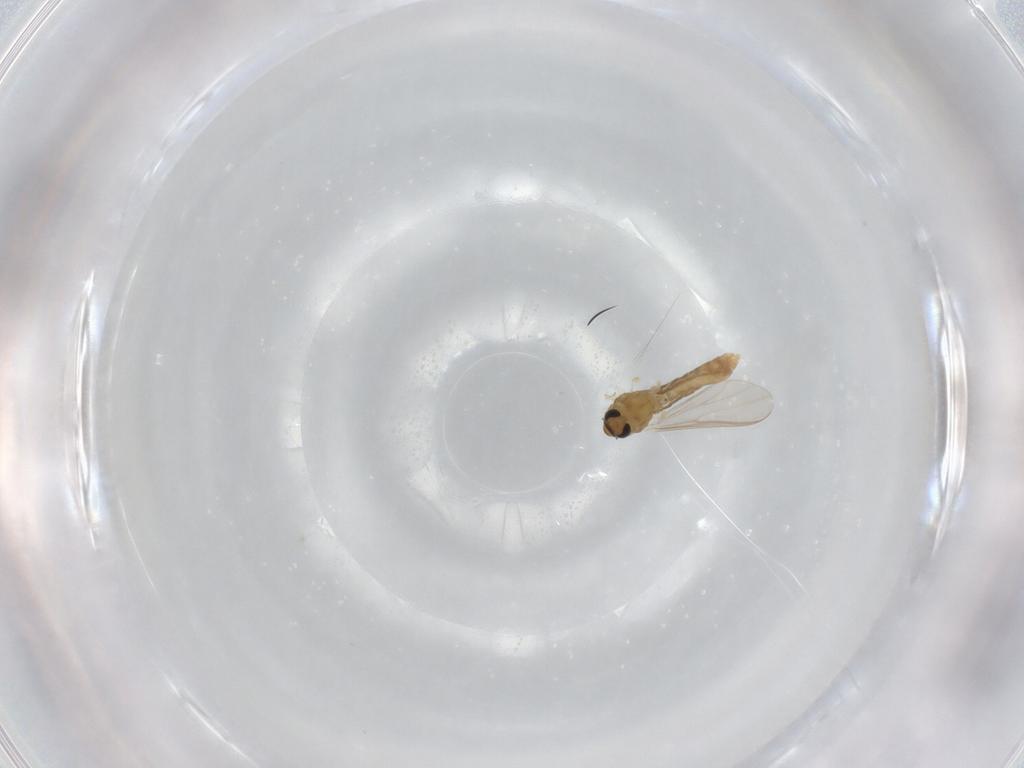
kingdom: Animalia
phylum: Arthropoda
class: Insecta
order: Diptera
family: Chironomidae
